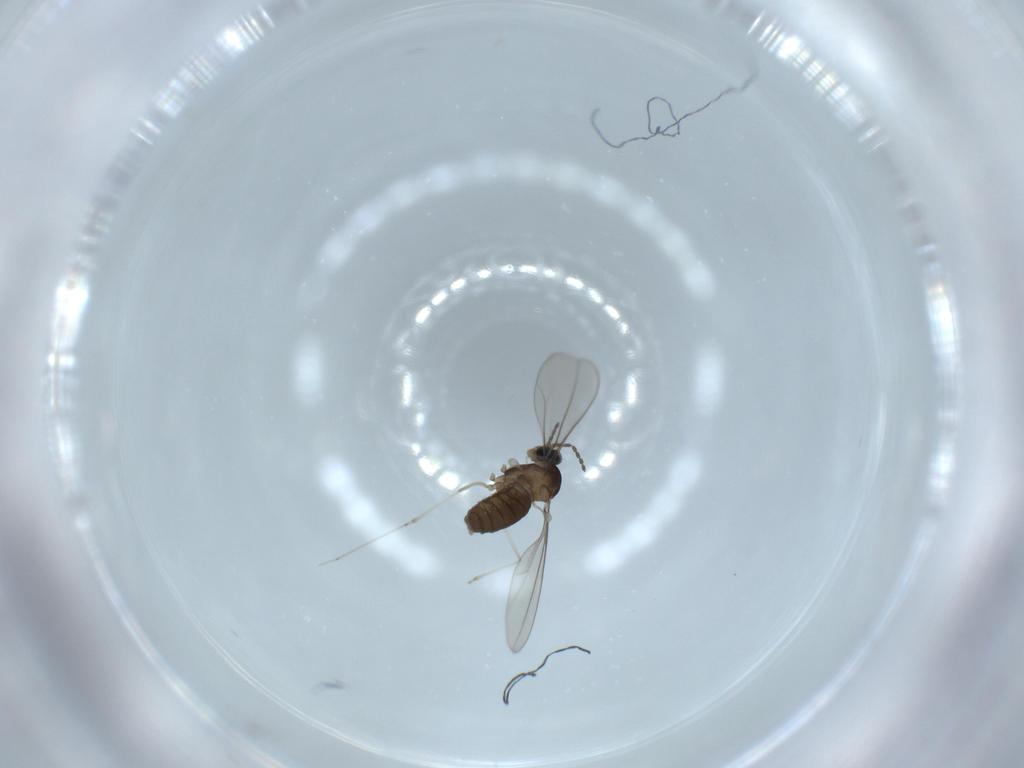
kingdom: Animalia
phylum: Arthropoda
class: Insecta
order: Diptera
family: Cecidomyiidae
